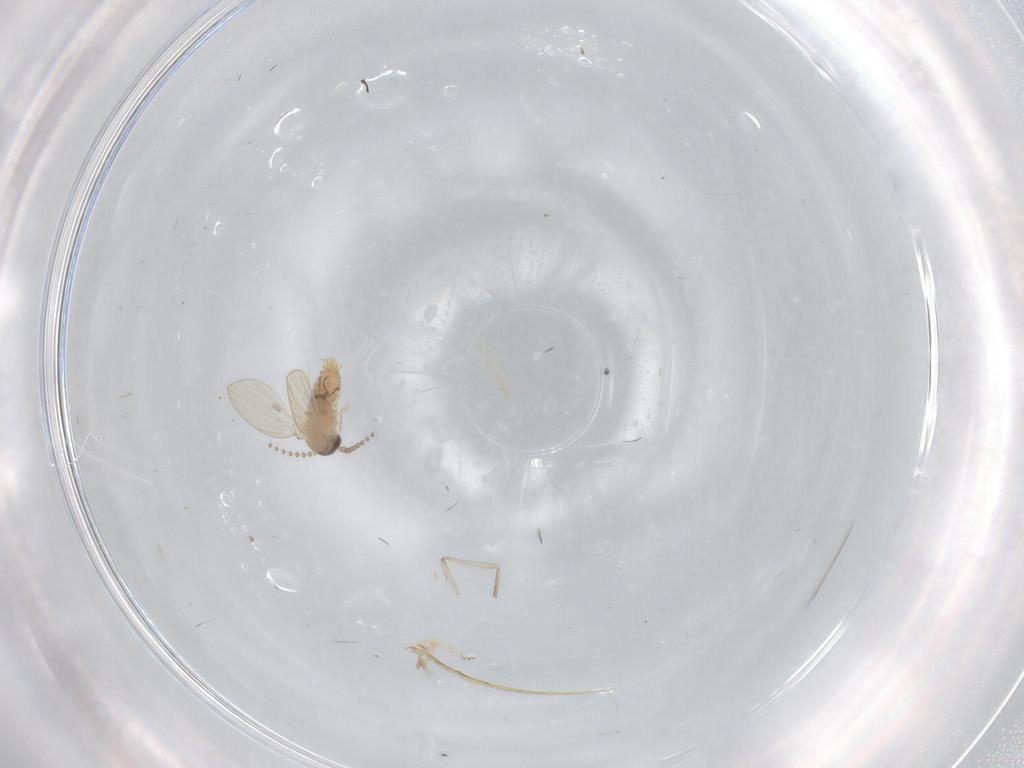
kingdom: Animalia
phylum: Arthropoda
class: Insecta
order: Diptera
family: Psychodidae
